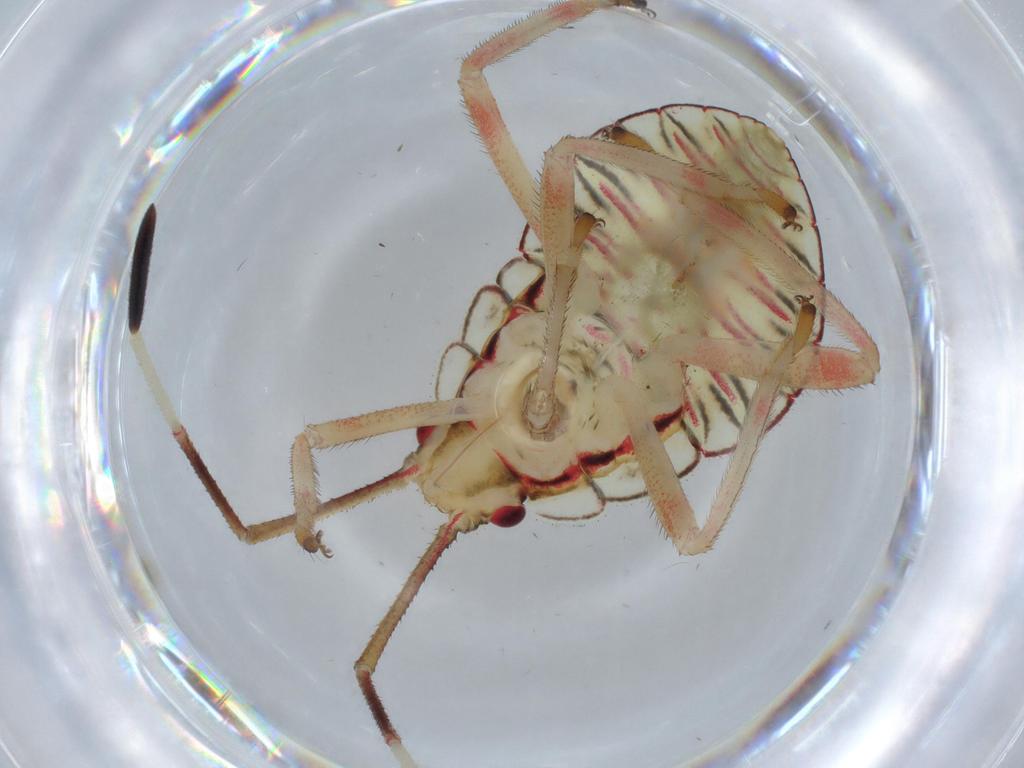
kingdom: Animalia
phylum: Arthropoda
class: Insecta
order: Hemiptera
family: Coreidae
